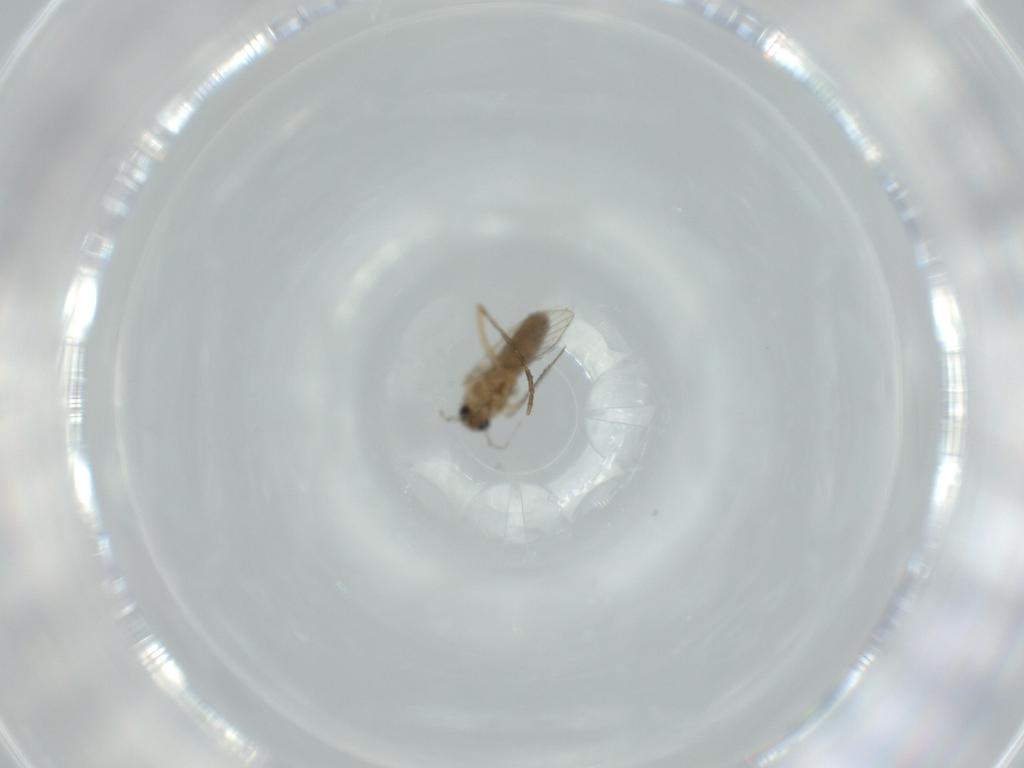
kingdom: Animalia
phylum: Arthropoda
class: Insecta
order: Diptera
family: Psychodidae
